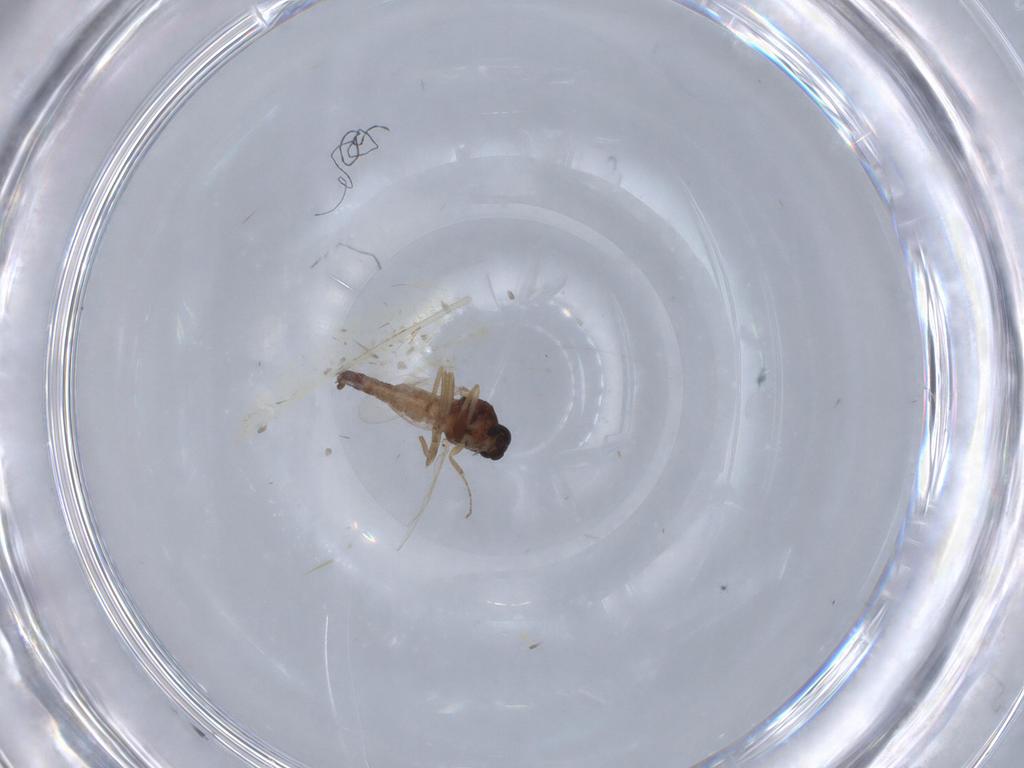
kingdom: Animalia
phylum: Arthropoda
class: Insecta
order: Diptera
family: Ceratopogonidae
